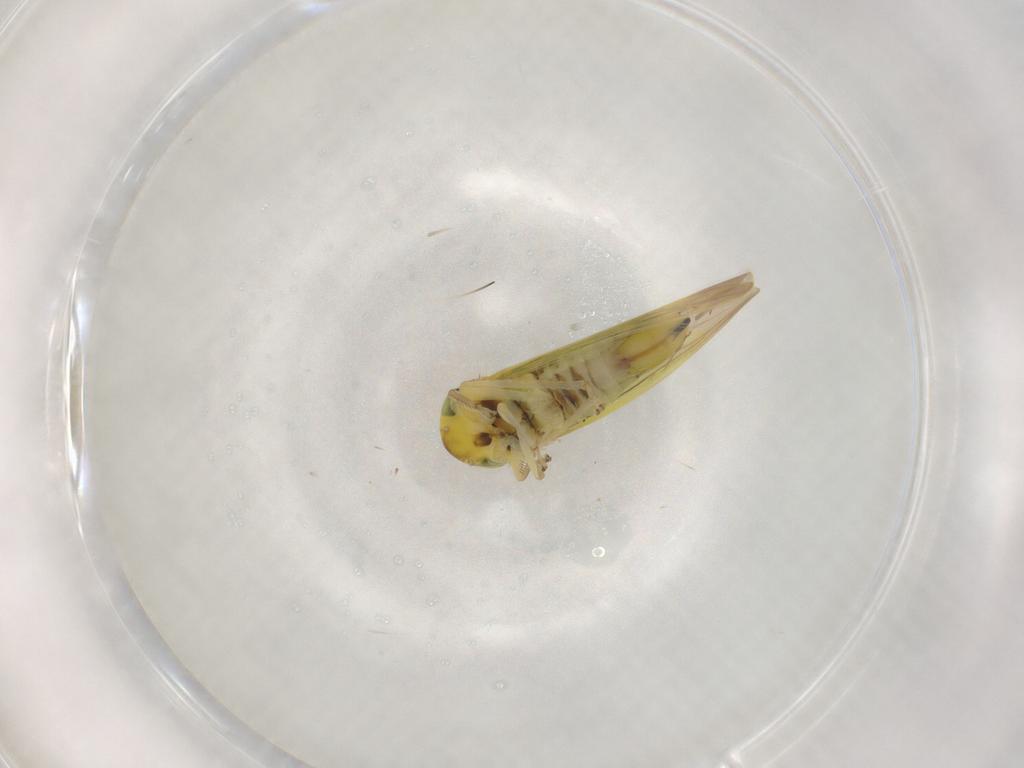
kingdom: Animalia
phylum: Arthropoda
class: Insecta
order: Hemiptera
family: Cicadellidae
